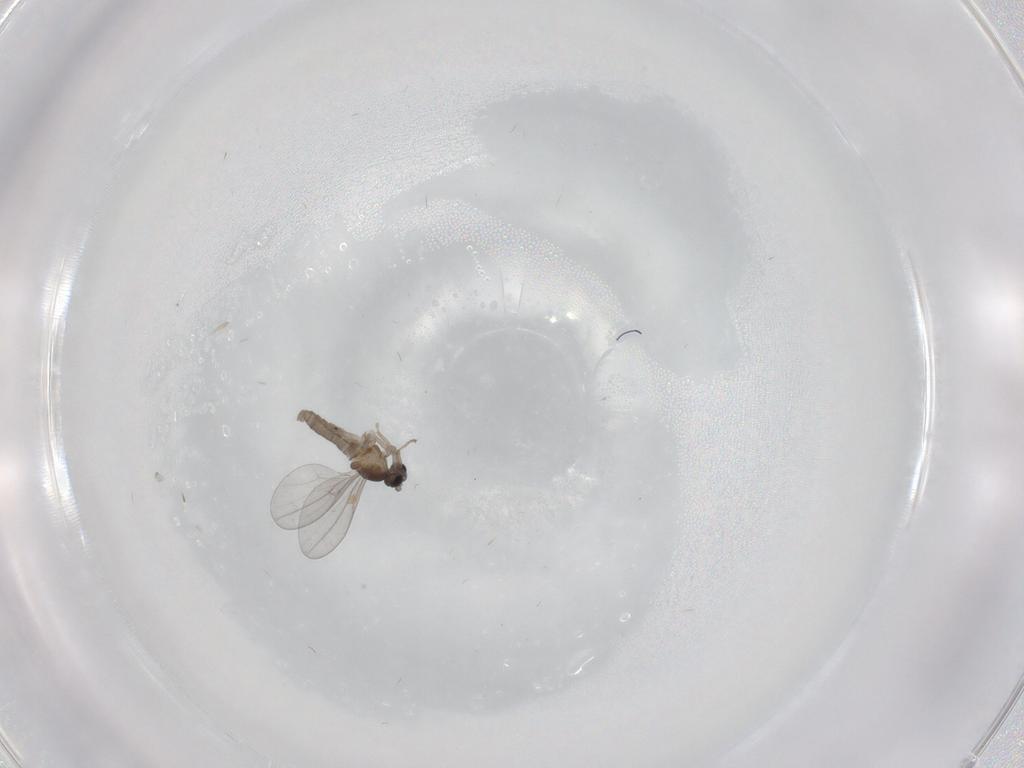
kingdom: Animalia
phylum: Arthropoda
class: Insecta
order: Diptera
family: Cecidomyiidae
